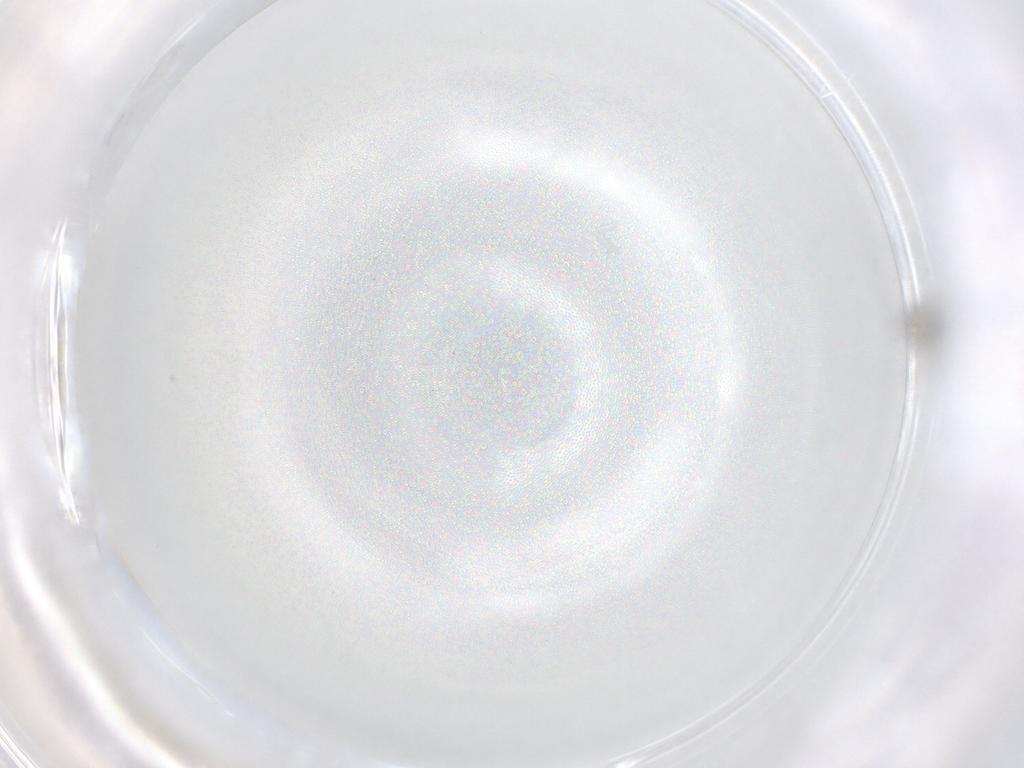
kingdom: Animalia
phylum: Arthropoda
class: Insecta
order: Diptera
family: Cecidomyiidae
